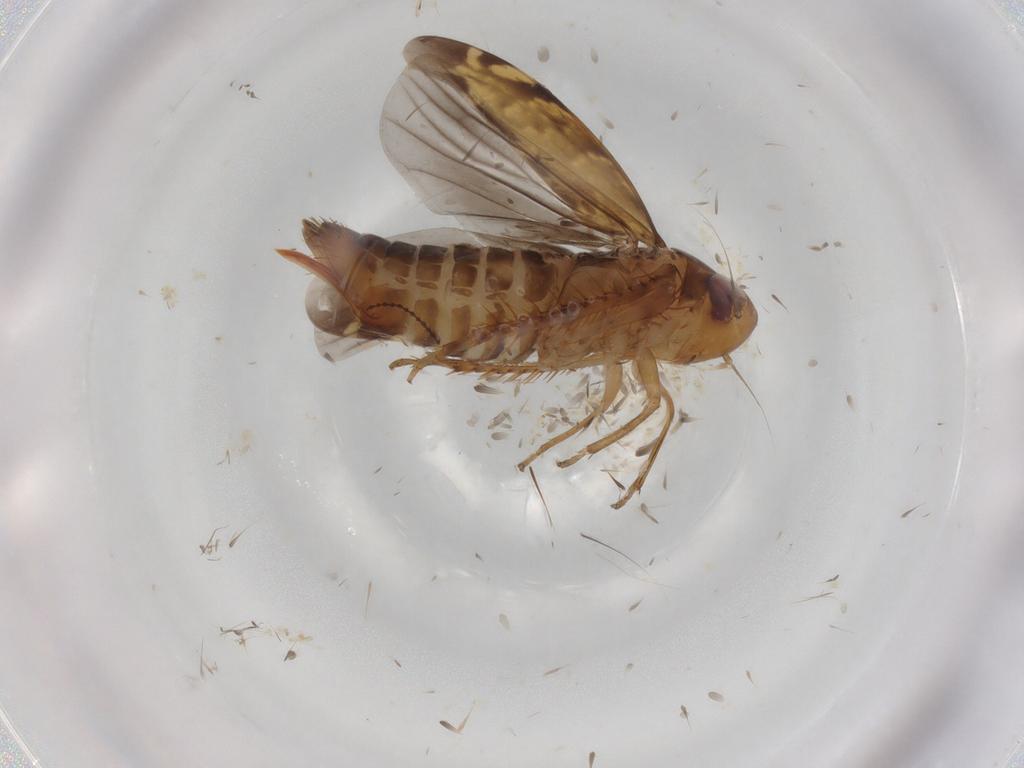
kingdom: Animalia
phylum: Arthropoda
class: Insecta
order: Hemiptera
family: Cicadellidae
